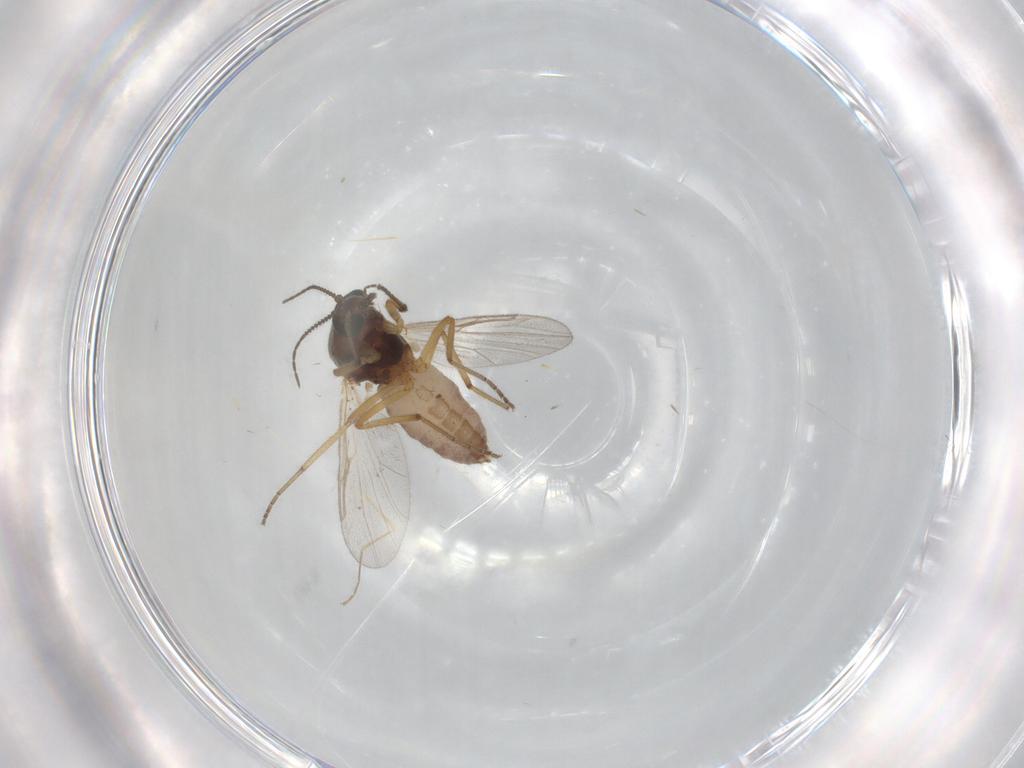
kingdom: Animalia
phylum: Arthropoda
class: Insecta
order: Diptera
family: Ceratopogonidae
